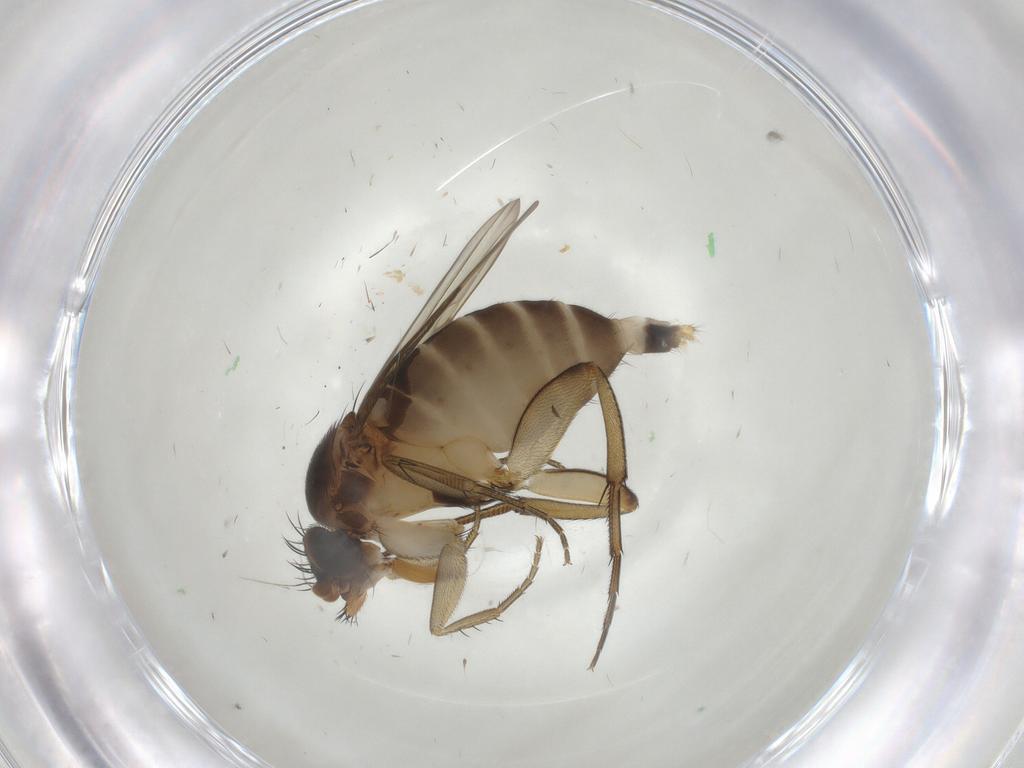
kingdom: Animalia
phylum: Arthropoda
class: Insecta
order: Diptera
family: Phoridae
